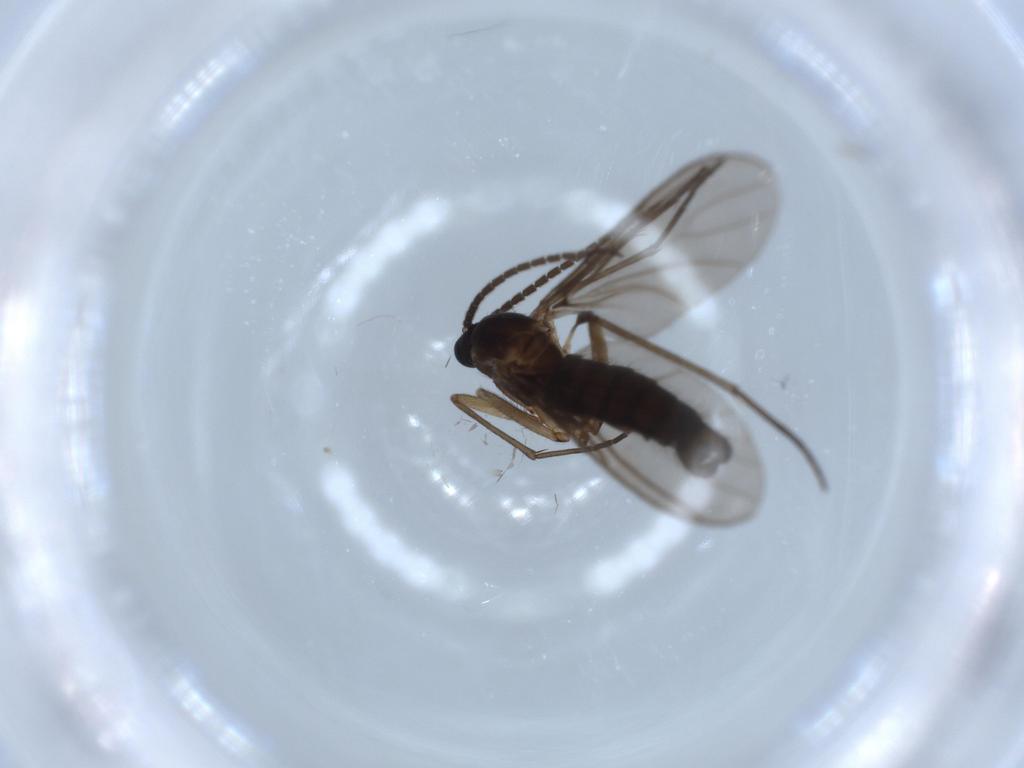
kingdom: Animalia
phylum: Arthropoda
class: Insecta
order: Diptera
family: Sciaridae
